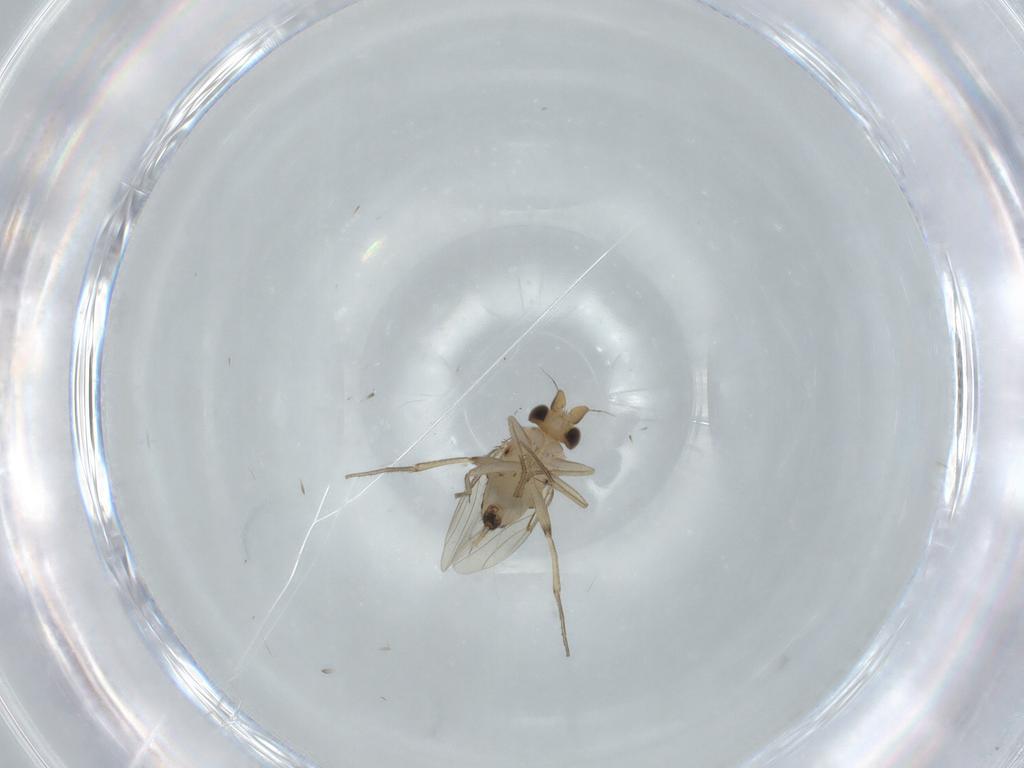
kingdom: Animalia
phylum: Arthropoda
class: Insecta
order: Diptera
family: Phoridae
